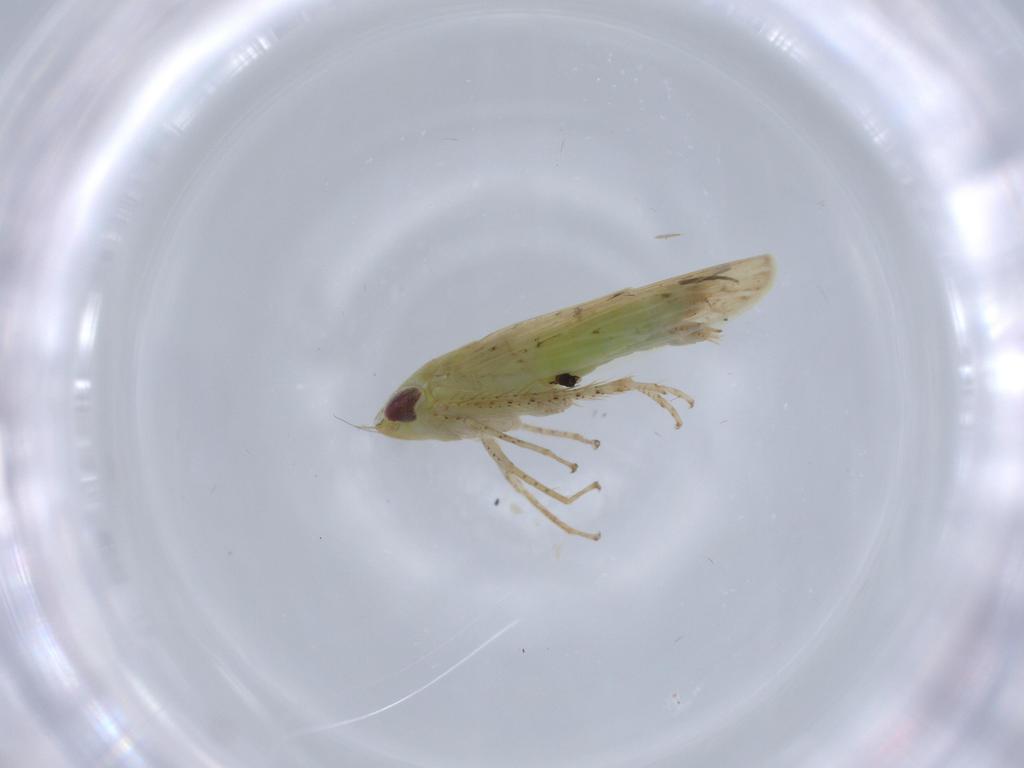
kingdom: Animalia
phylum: Arthropoda
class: Insecta
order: Hemiptera
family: Cicadellidae
